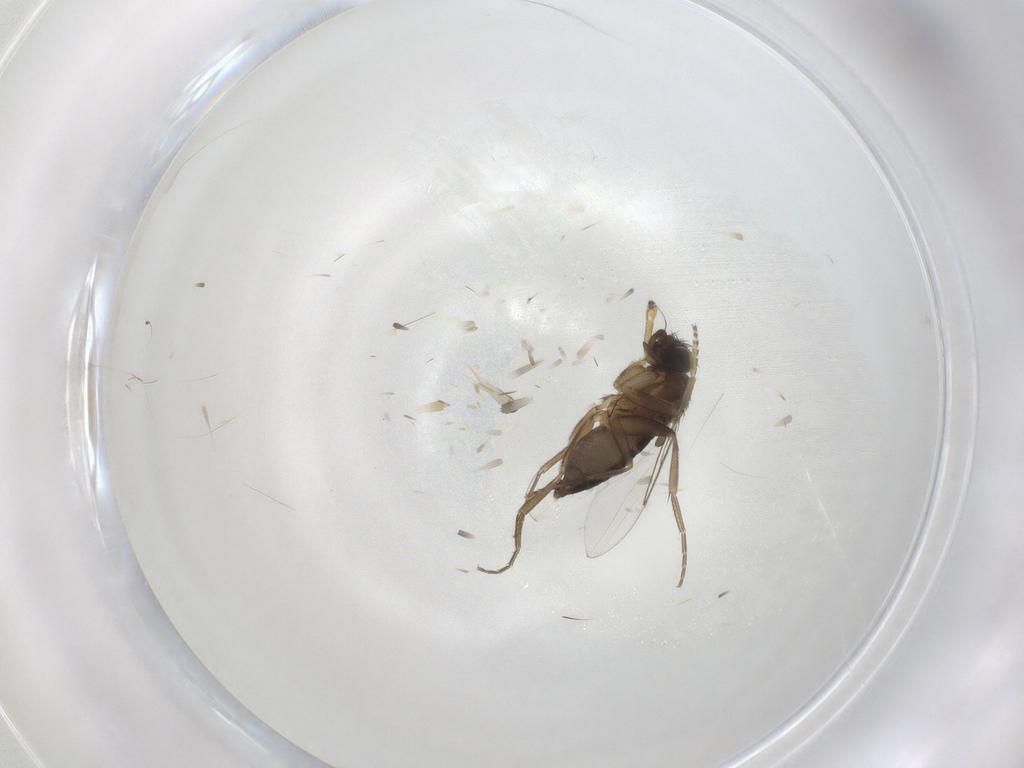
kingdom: Animalia
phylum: Arthropoda
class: Insecta
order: Diptera
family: Phoridae
